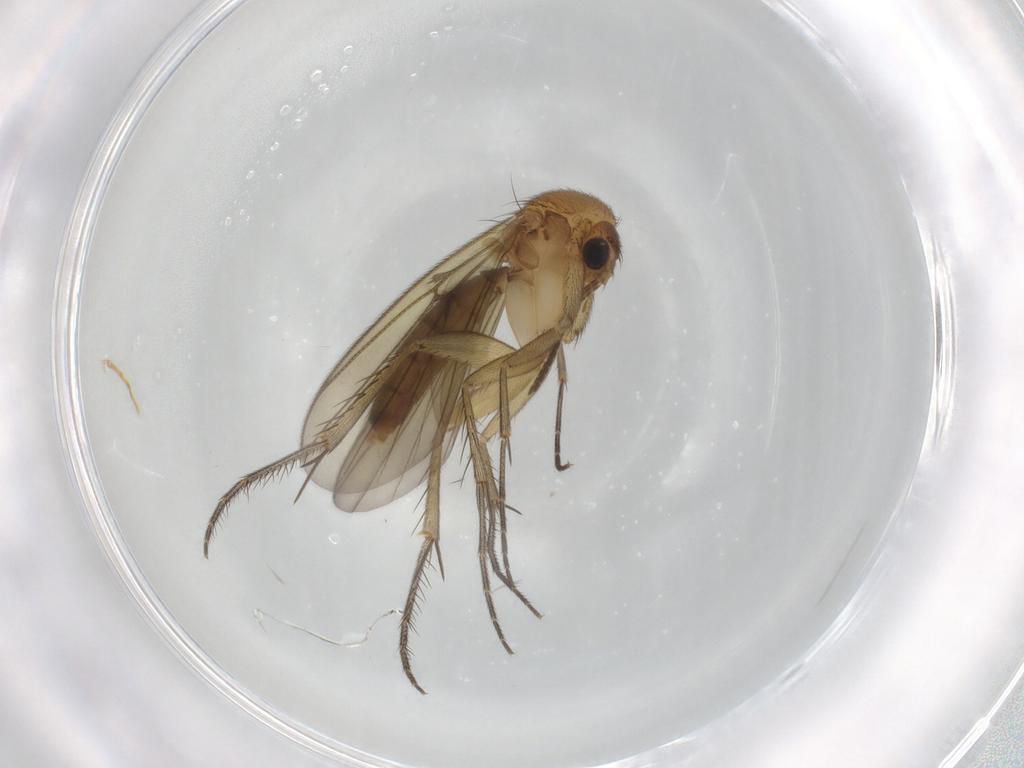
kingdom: Animalia
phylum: Arthropoda
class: Insecta
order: Diptera
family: Mycetophilidae
